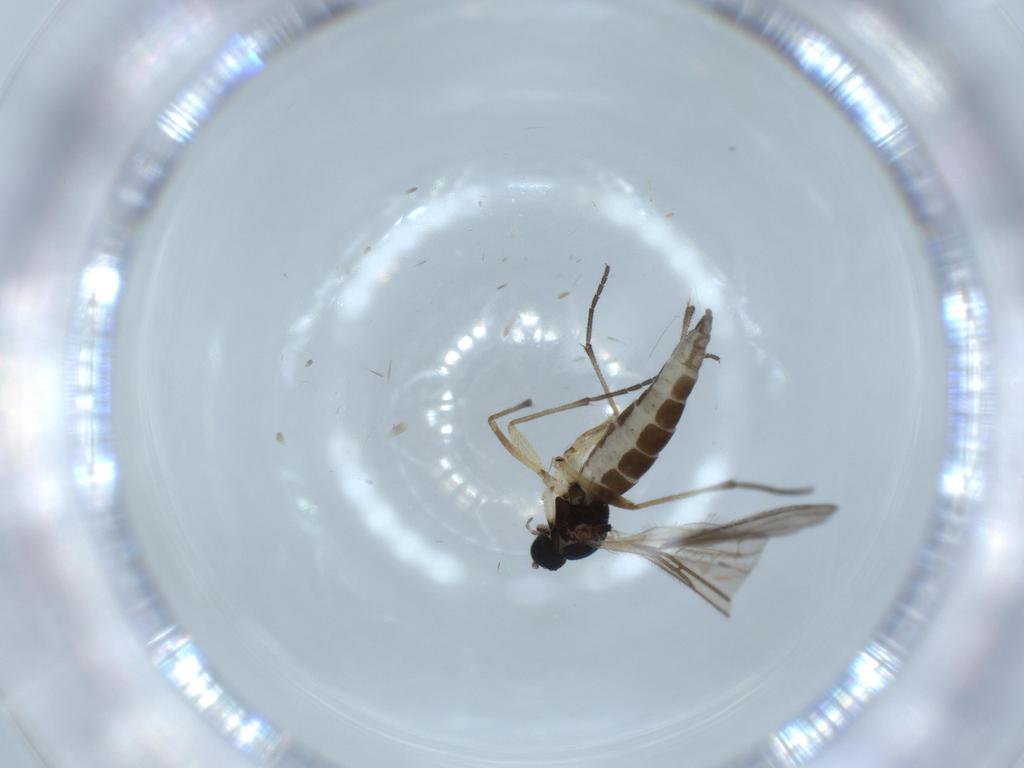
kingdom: Animalia
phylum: Arthropoda
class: Insecta
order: Diptera
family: Sciaridae
